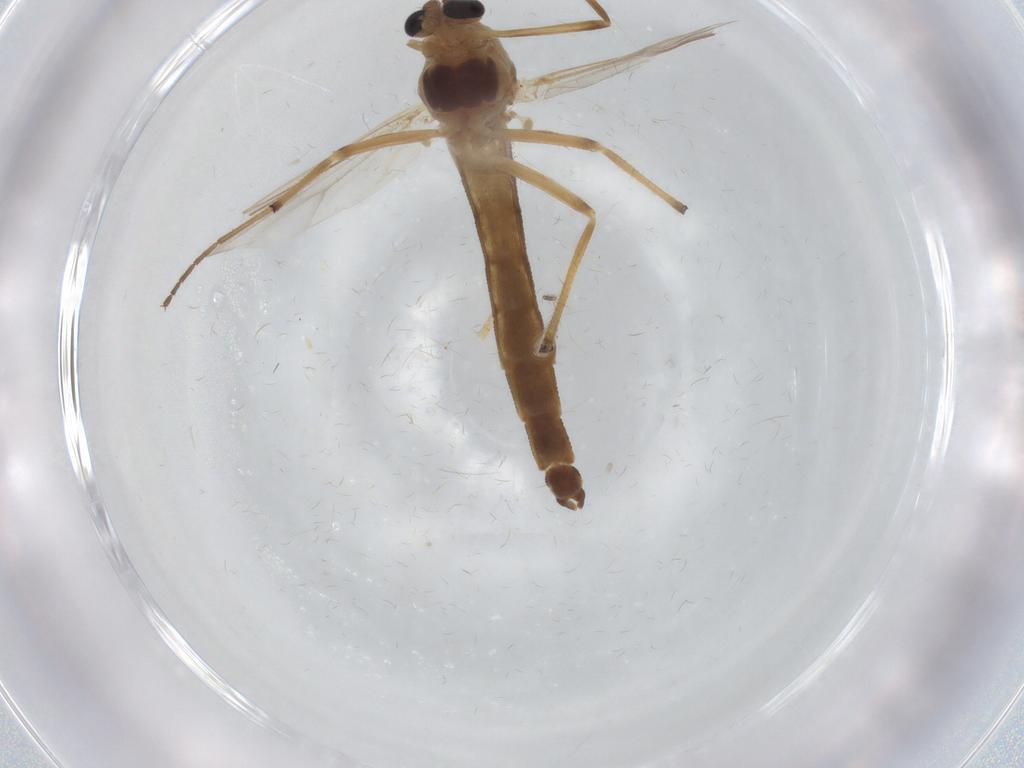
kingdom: Animalia
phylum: Arthropoda
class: Insecta
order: Diptera
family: Chironomidae
